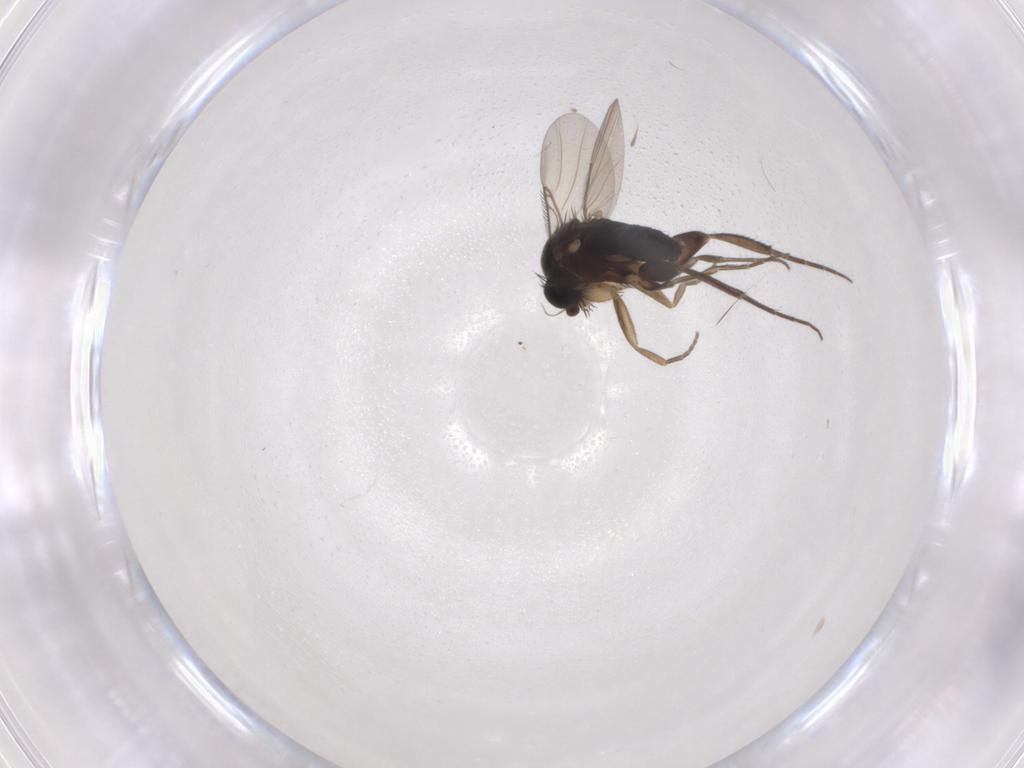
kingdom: Animalia
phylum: Arthropoda
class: Insecta
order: Diptera
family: Phoridae
